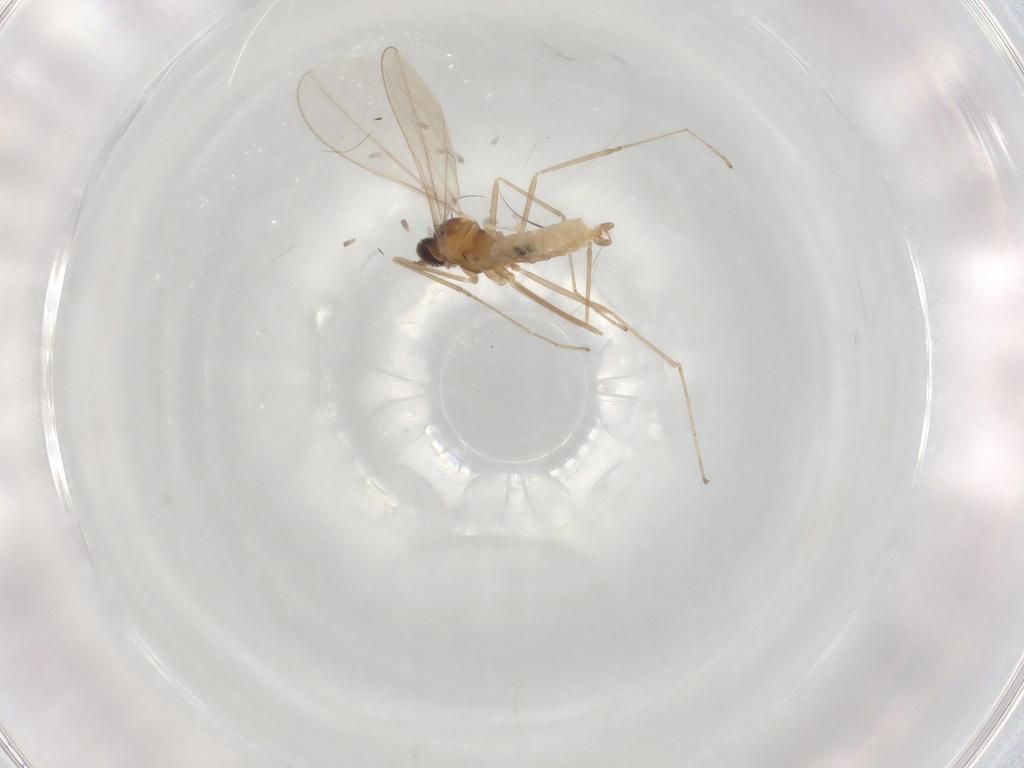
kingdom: Animalia
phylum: Arthropoda
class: Insecta
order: Diptera
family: Cecidomyiidae
